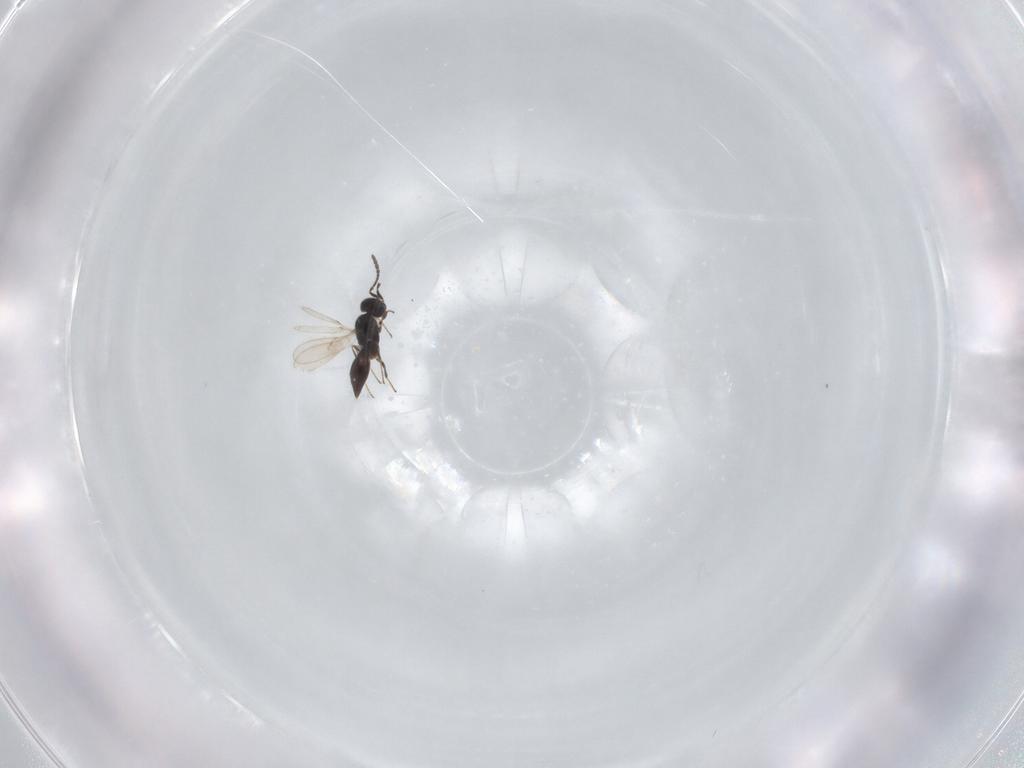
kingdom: Animalia
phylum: Arthropoda
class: Insecta
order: Hymenoptera
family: Scelionidae
